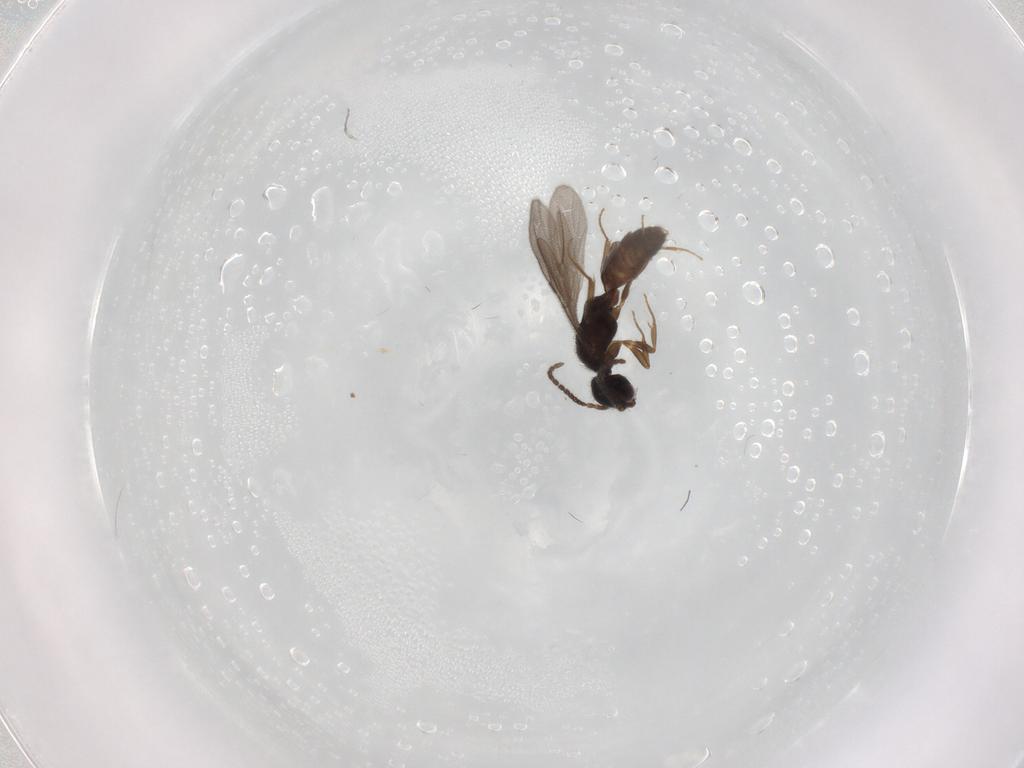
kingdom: Animalia
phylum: Arthropoda
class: Insecta
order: Hymenoptera
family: Bethylidae
